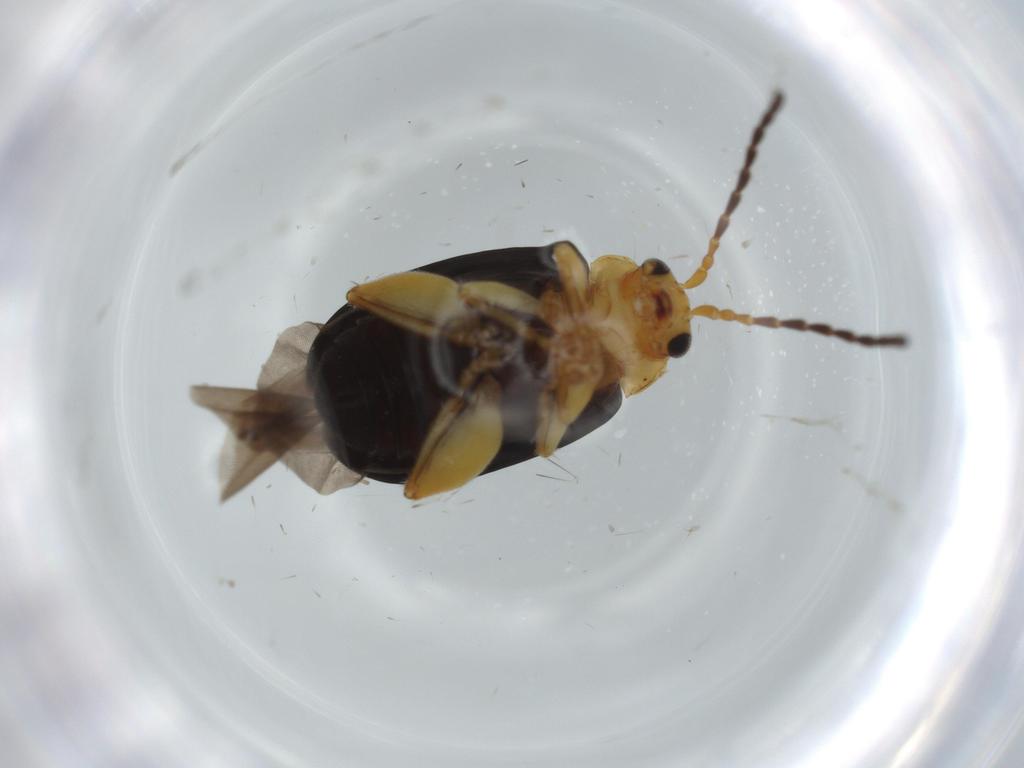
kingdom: Animalia
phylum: Arthropoda
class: Insecta
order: Coleoptera
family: Chrysomelidae
